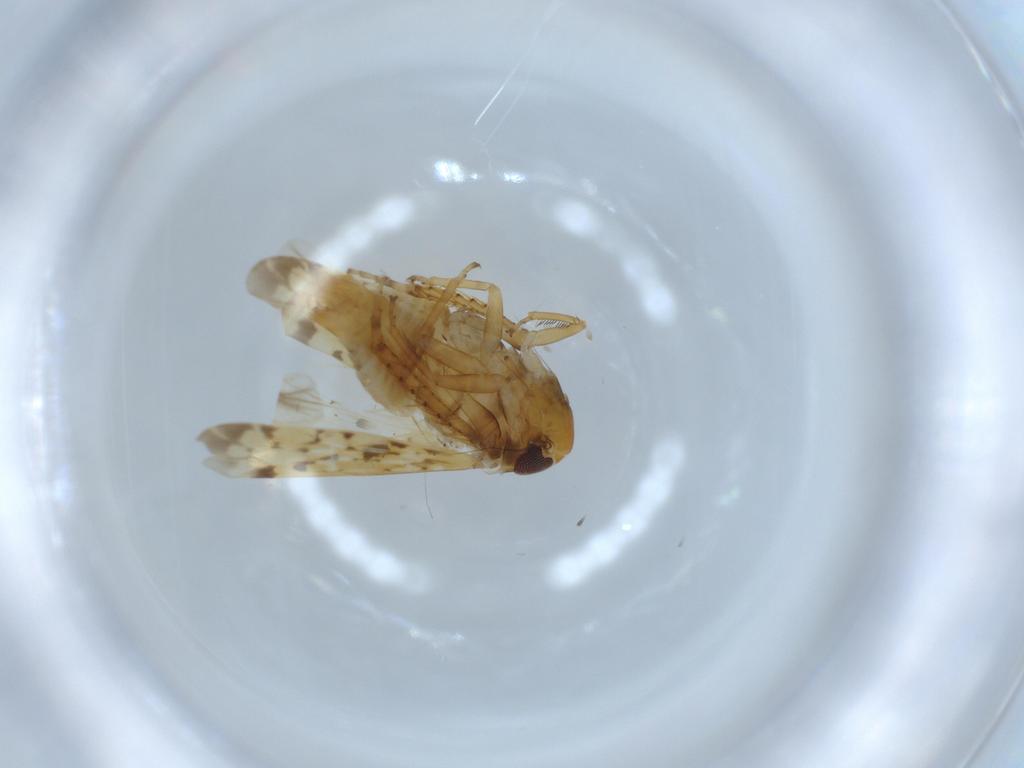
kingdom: Animalia
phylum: Arthropoda
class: Insecta
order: Hemiptera
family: Cicadellidae
